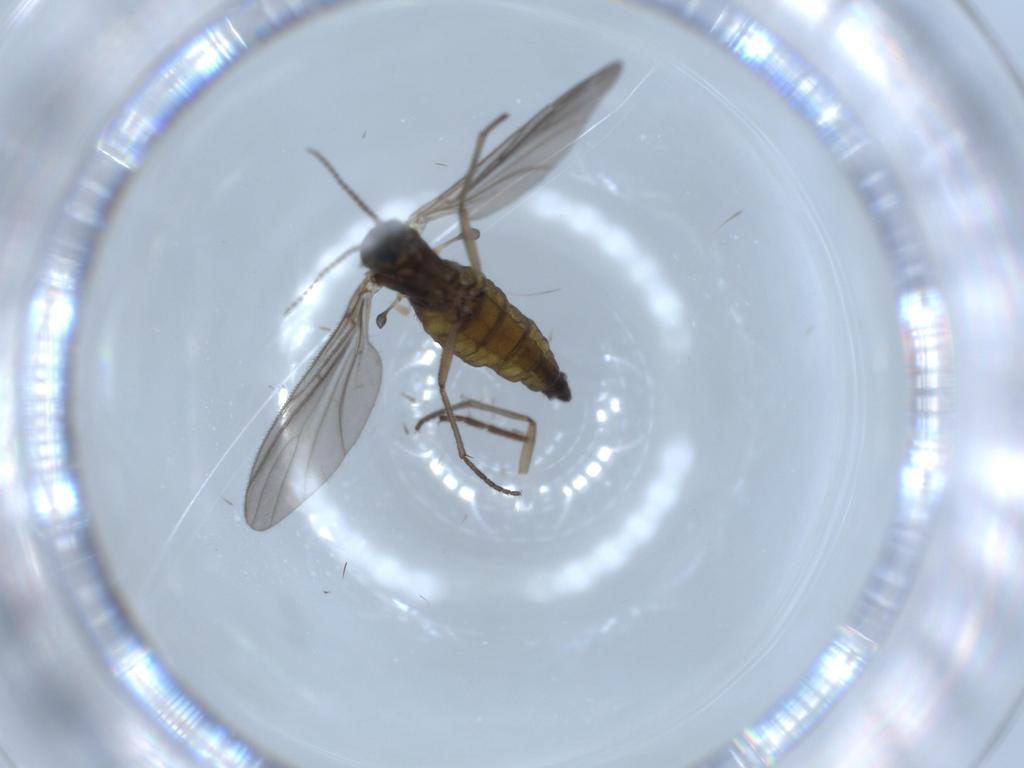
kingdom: Animalia
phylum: Arthropoda
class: Insecta
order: Diptera
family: Sciaridae
